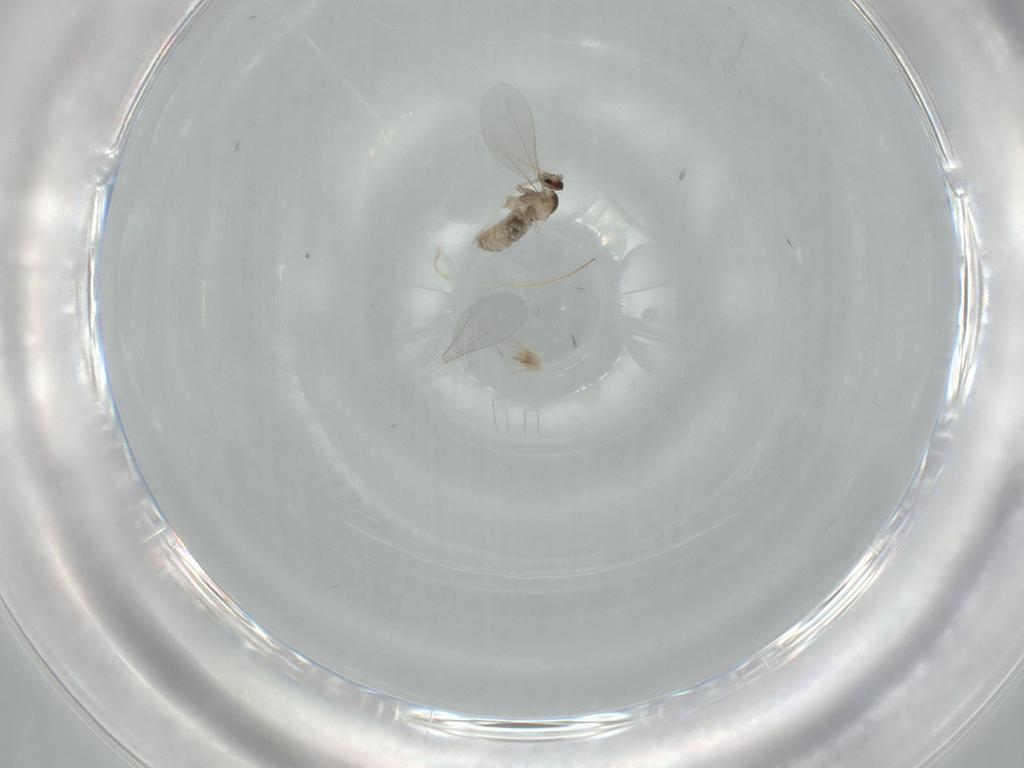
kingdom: Animalia
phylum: Arthropoda
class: Insecta
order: Diptera
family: Cecidomyiidae
